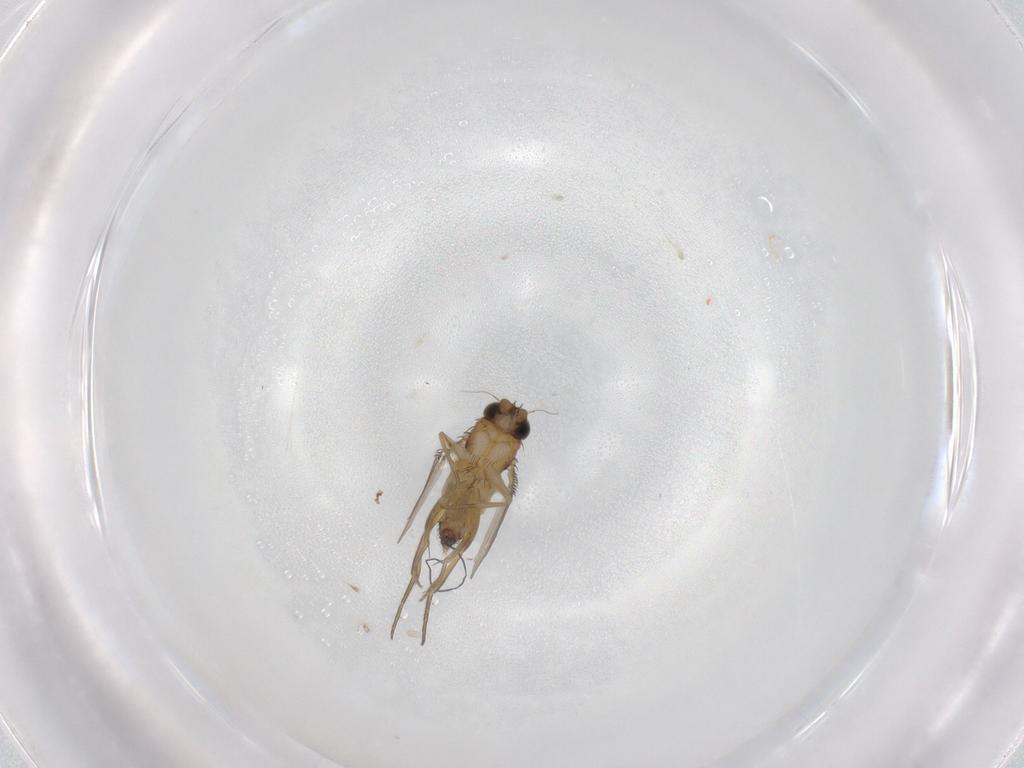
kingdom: Animalia
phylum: Arthropoda
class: Insecta
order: Diptera
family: Phoridae
